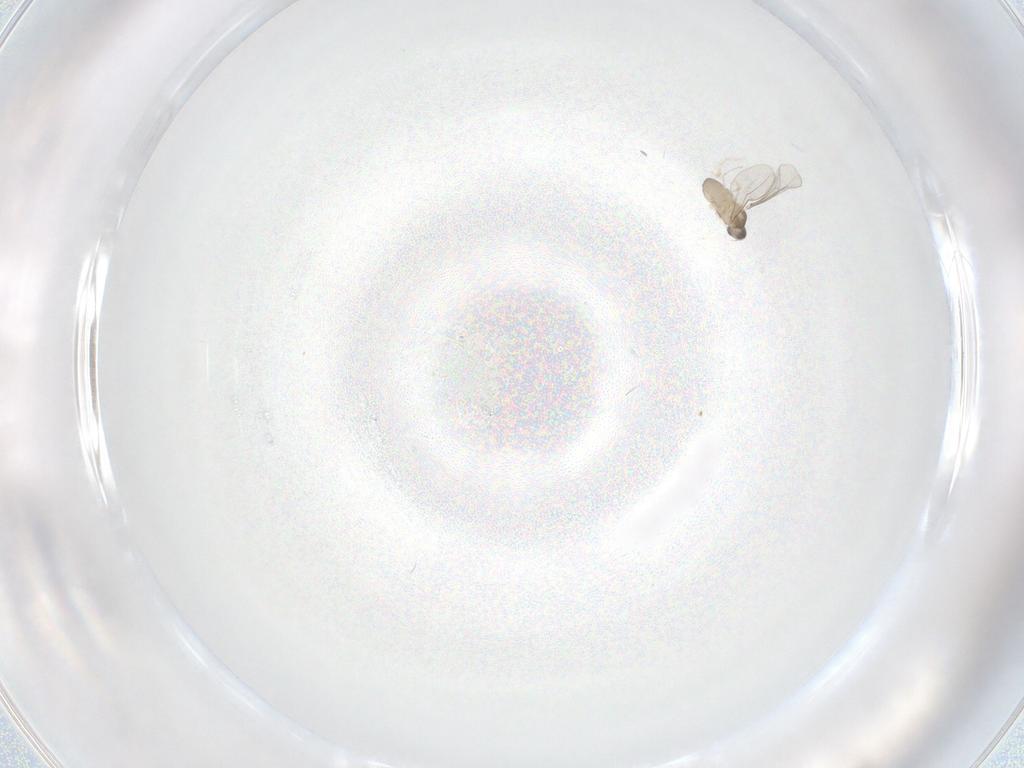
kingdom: Animalia
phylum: Arthropoda
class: Insecta
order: Diptera
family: Cecidomyiidae
